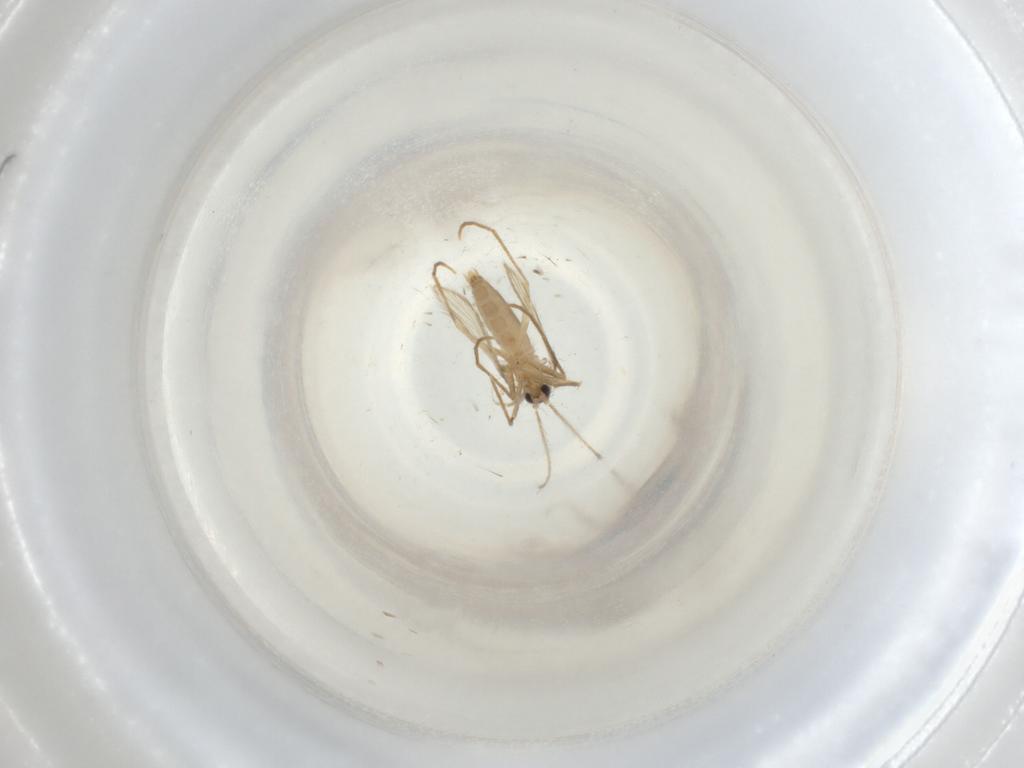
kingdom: Animalia
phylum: Arthropoda
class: Insecta
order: Diptera
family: Psychodidae
